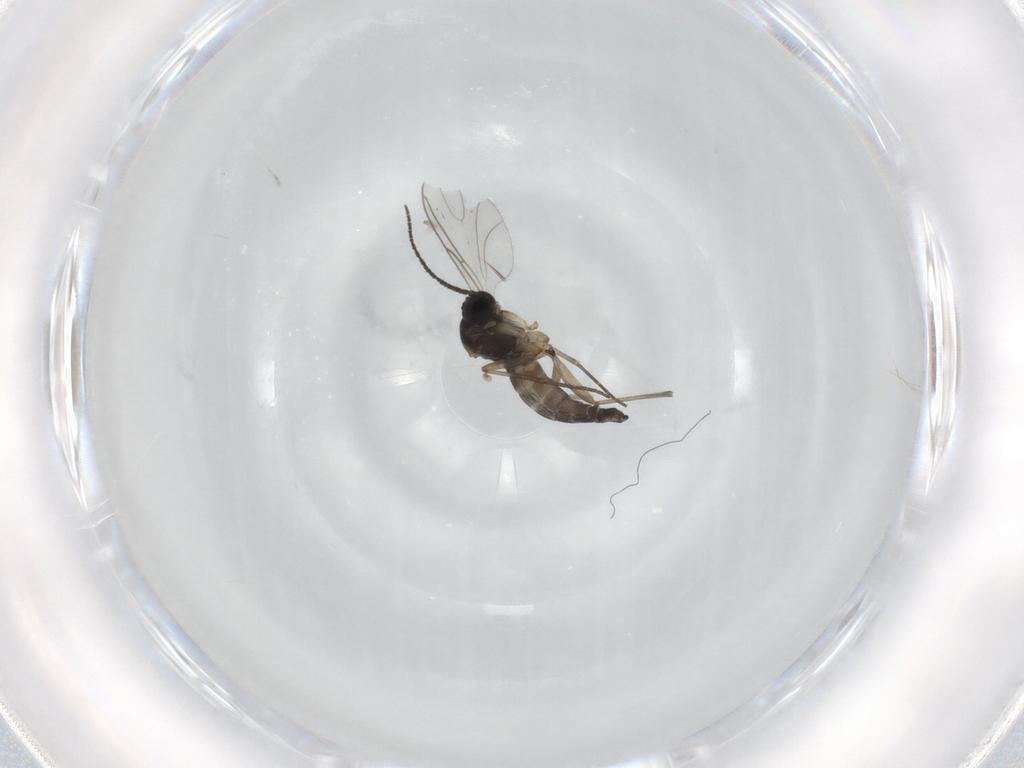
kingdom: Animalia
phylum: Arthropoda
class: Insecta
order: Diptera
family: Sciaridae
